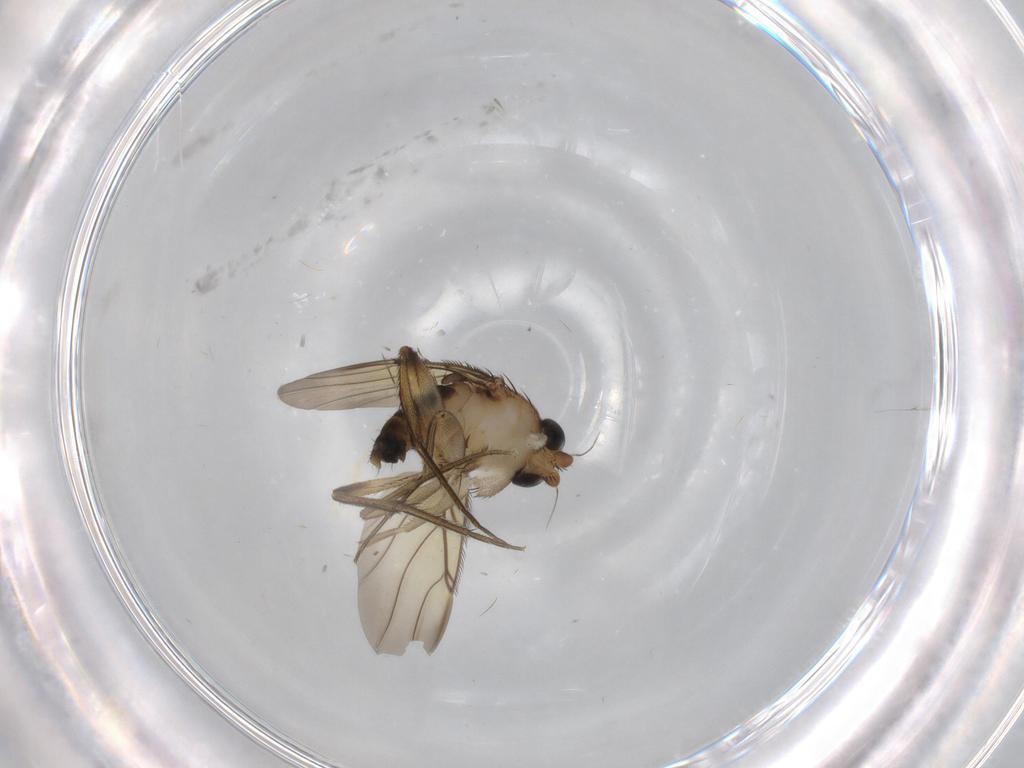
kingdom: Animalia
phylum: Arthropoda
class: Insecta
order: Diptera
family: Phoridae
